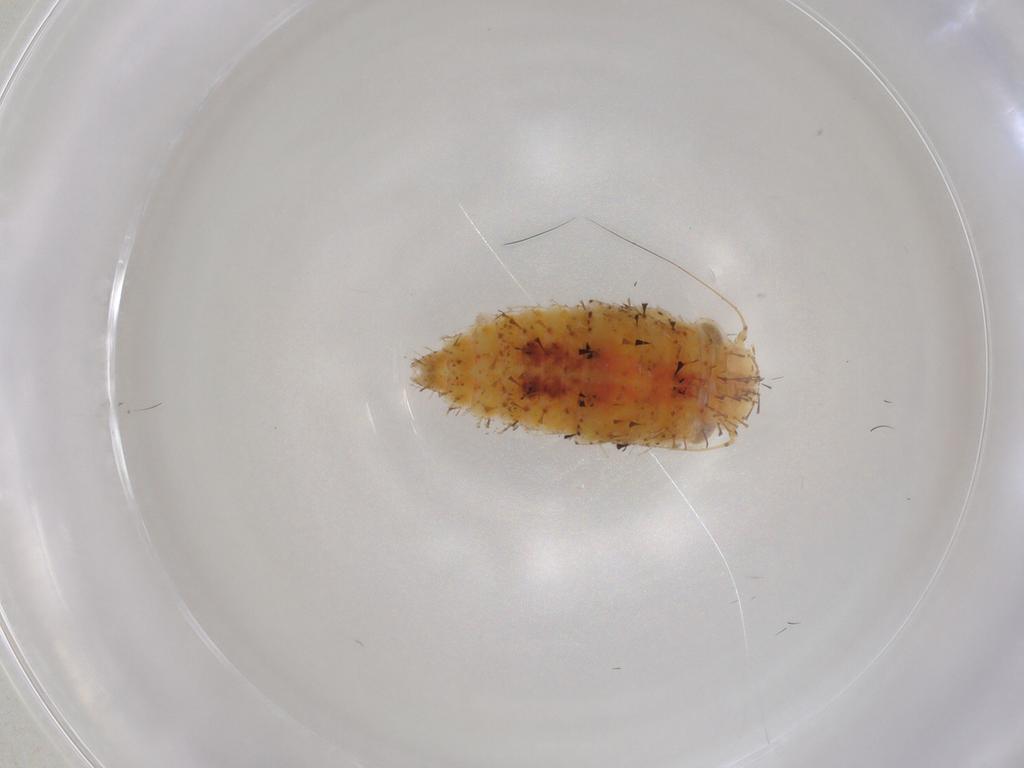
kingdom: Animalia
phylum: Arthropoda
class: Insecta
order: Hemiptera
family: Cicadellidae
